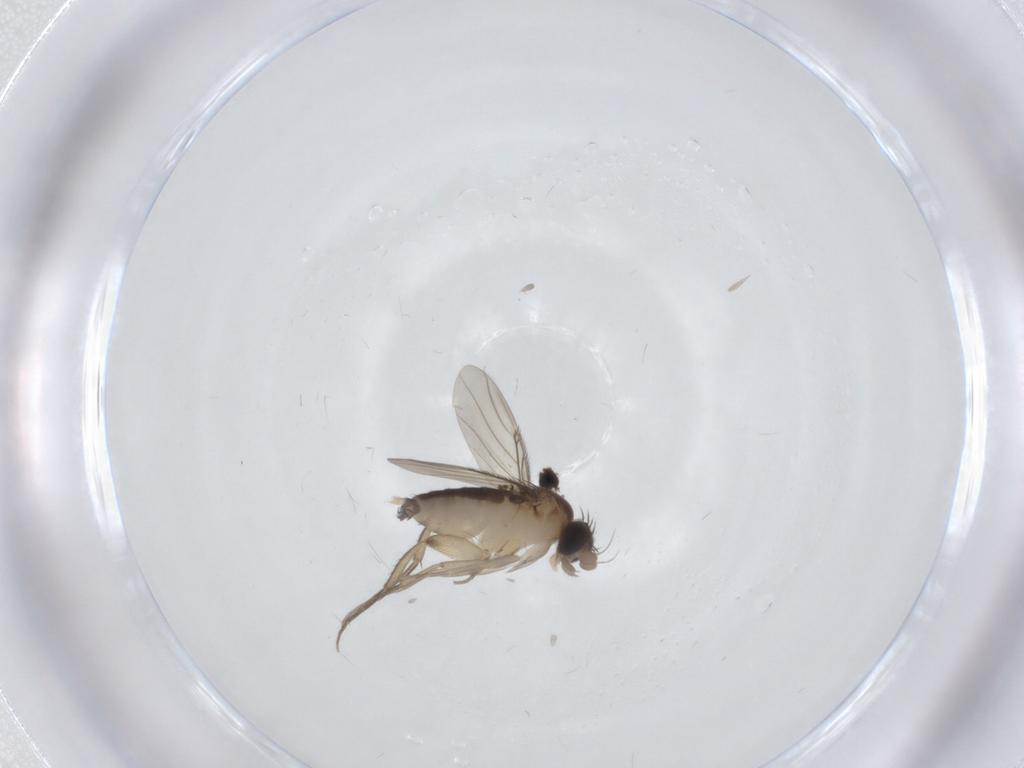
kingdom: Animalia
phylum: Arthropoda
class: Insecta
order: Diptera
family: Phoridae
